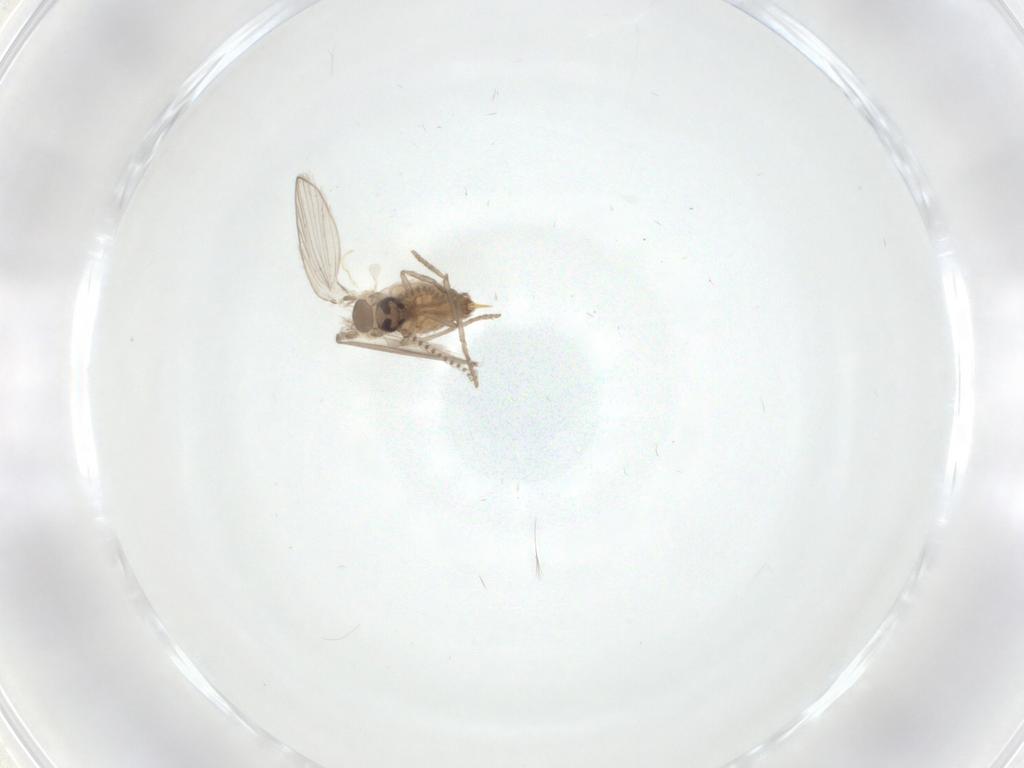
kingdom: Animalia
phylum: Arthropoda
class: Insecta
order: Diptera
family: Psychodidae
